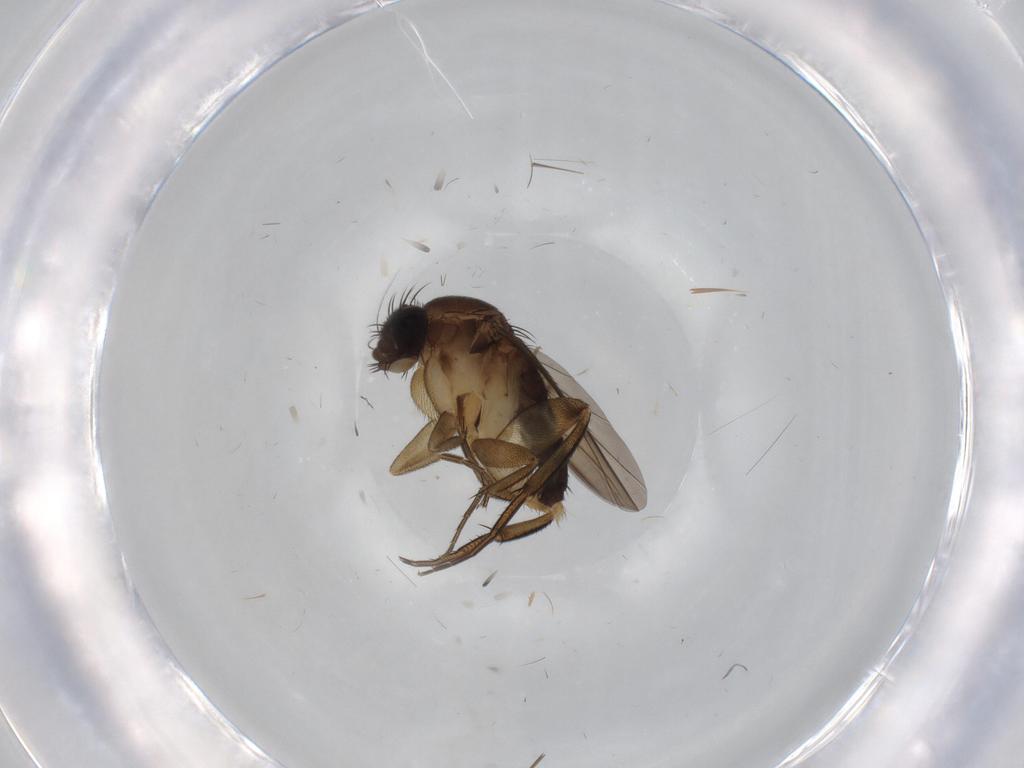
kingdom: Animalia
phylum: Arthropoda
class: Insecta
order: Diptera
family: Phoridae
